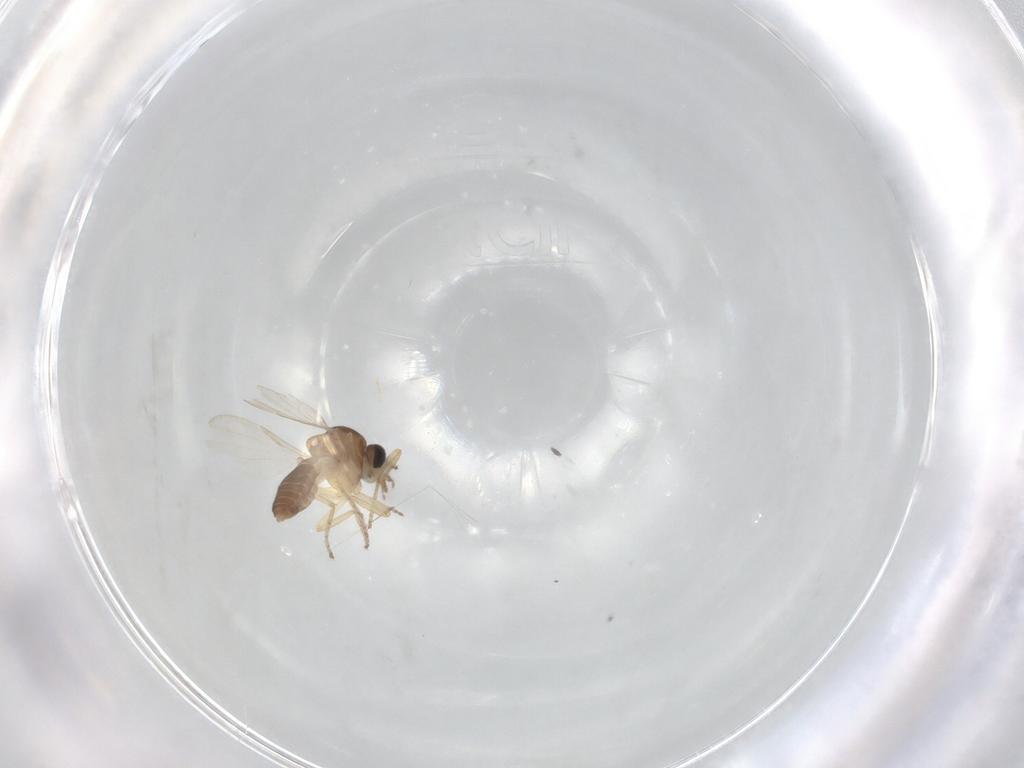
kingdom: Animalia
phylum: Arthropoda
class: Insecta
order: Diptera
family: Ceratopogonidae
